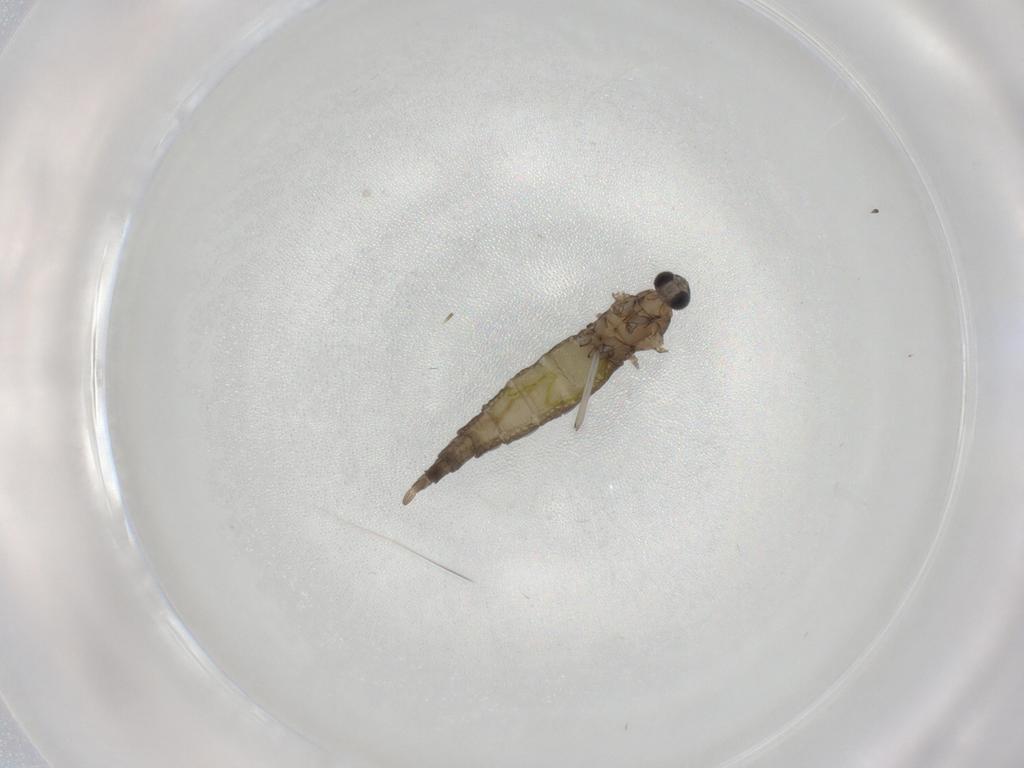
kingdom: Animalia
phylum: Arthropoda
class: Insecta
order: Diptera
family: Cecidomyiidae
